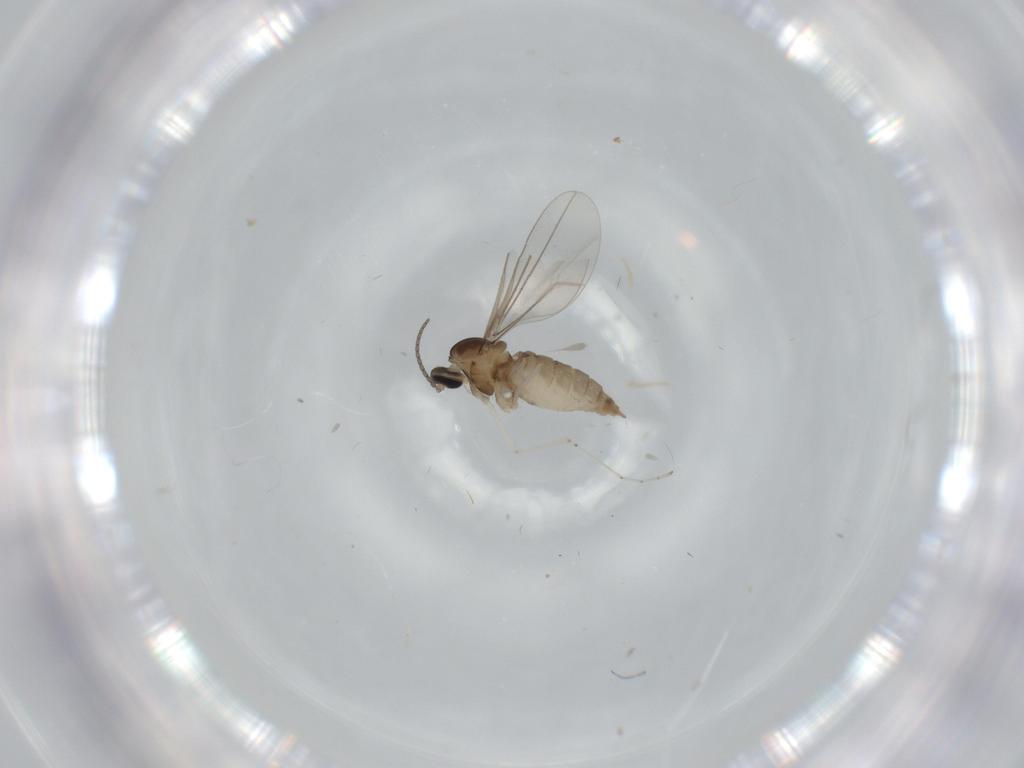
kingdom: Animalia
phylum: Arthropoda
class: Insecta
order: Diptera
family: Cecidomyiidae
